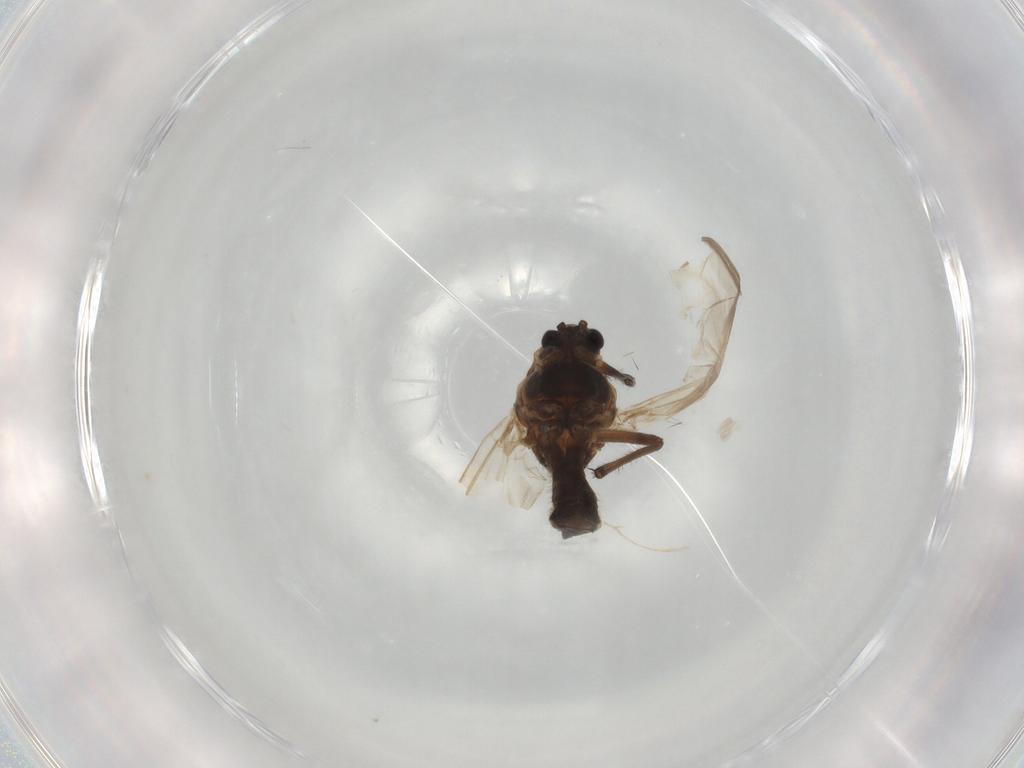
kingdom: Animalia
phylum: Arthropoda
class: Insecta
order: Diptera
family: Chironomidae
